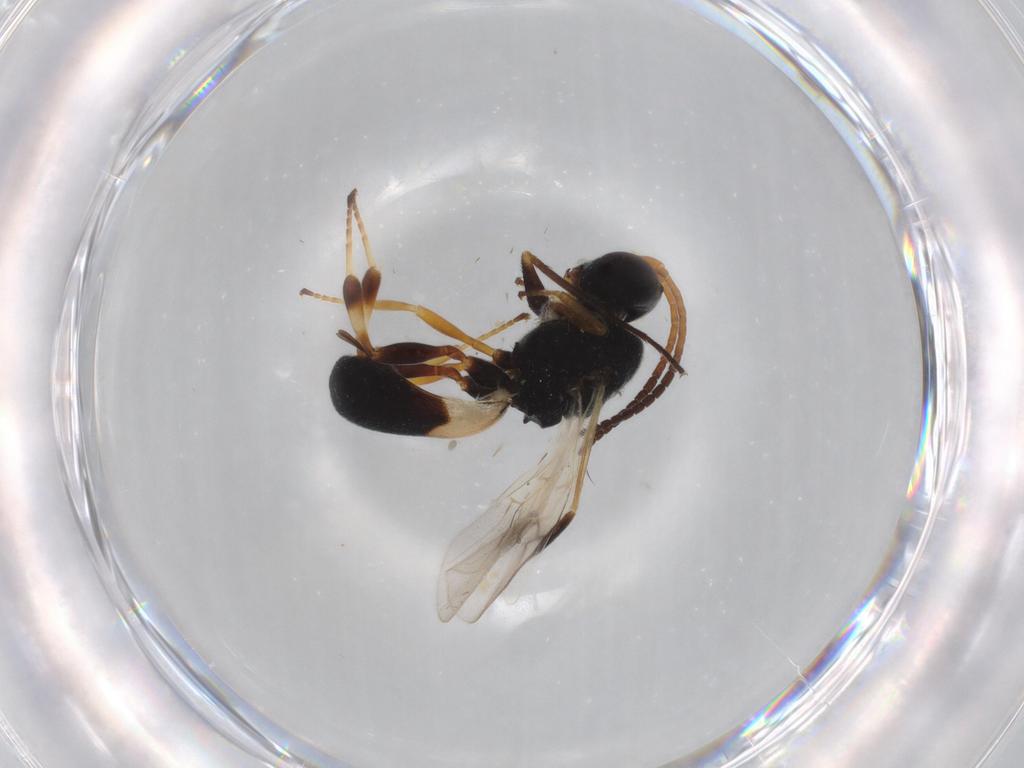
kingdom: Animalia
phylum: Arthropoda
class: Insecta
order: Hymenoptera
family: Braconidae
